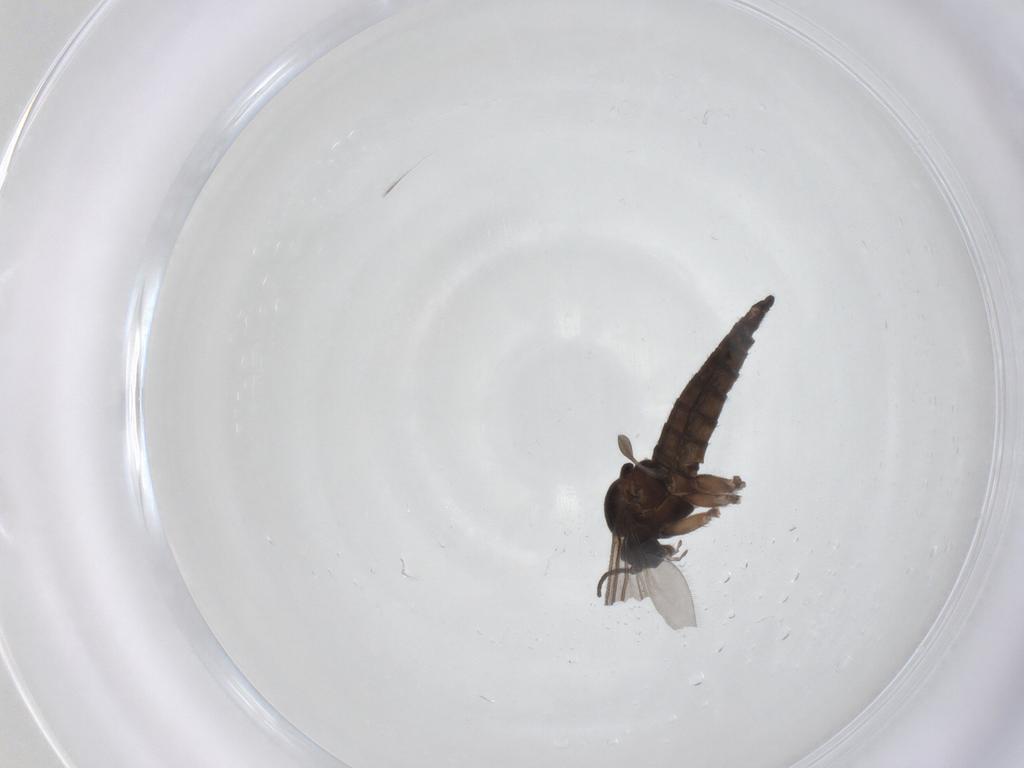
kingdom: Animalia
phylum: Arthropoda
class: Insecta
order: Diptera
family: Sciaridae
